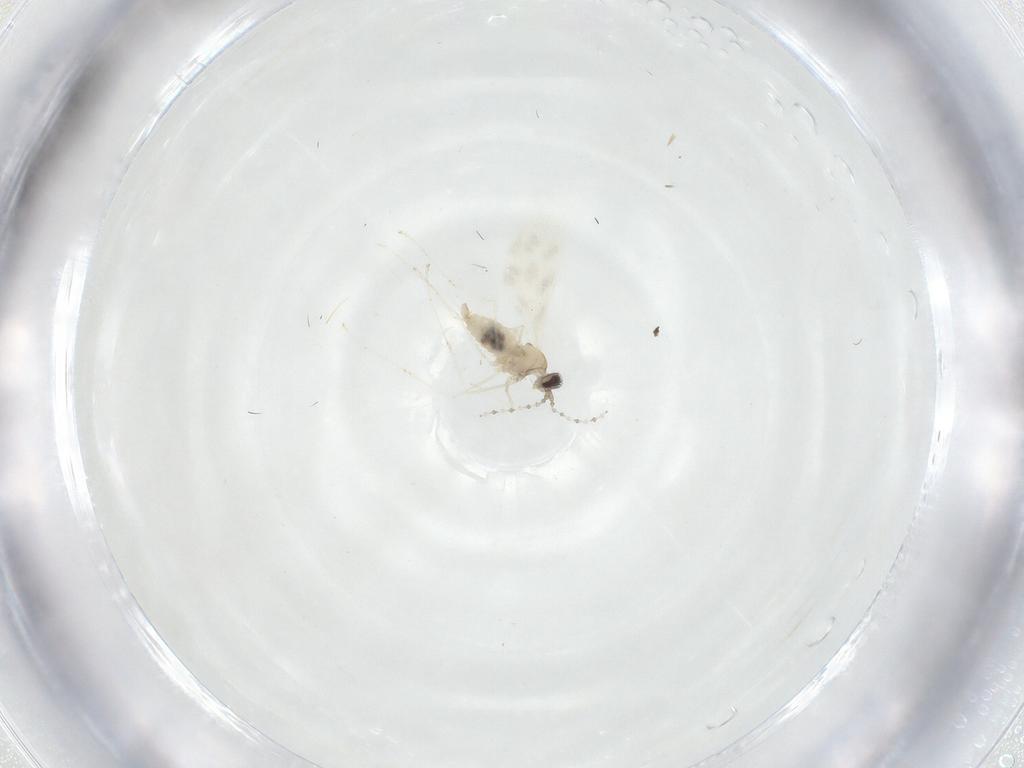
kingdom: Animalia
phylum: Arthropoda
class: Insecta
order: Diptera
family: Cecidomyiidae
